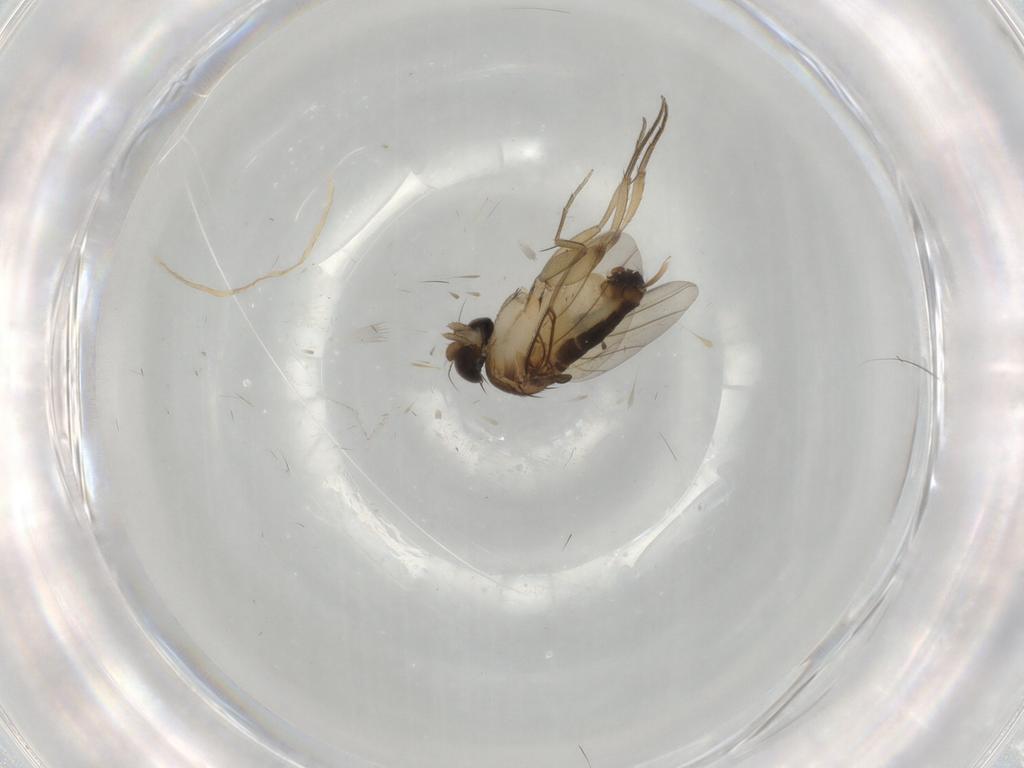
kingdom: Animalia
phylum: Arthropoda
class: Insecta
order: Diptera
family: Cecidomyiidae
